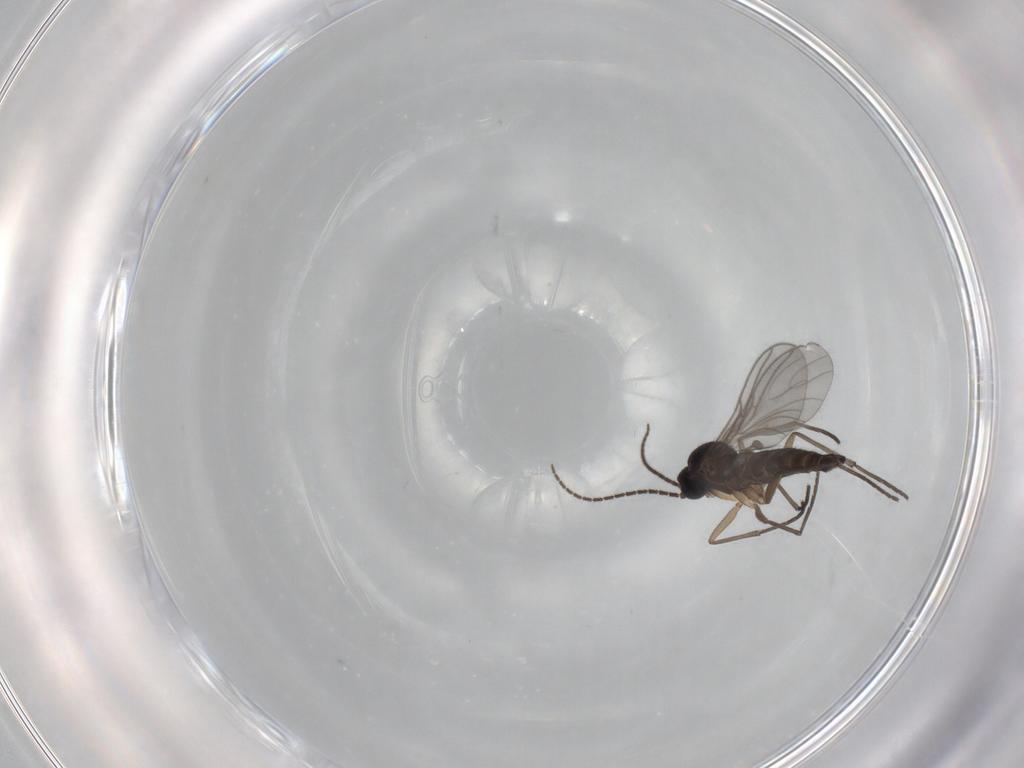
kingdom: Animalia
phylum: Arthropoda
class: Insecta
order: Diptera
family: Sciaridae
